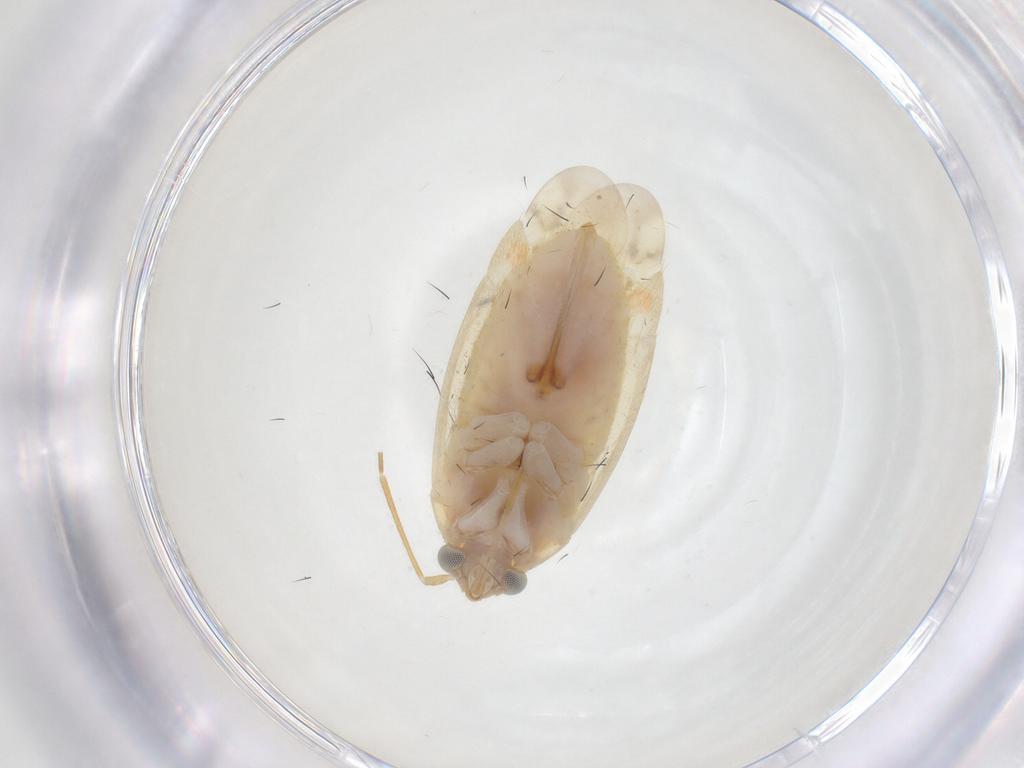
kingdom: Animalia
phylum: Arthropoda
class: Insecta
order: Hemiptera
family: Miridae
